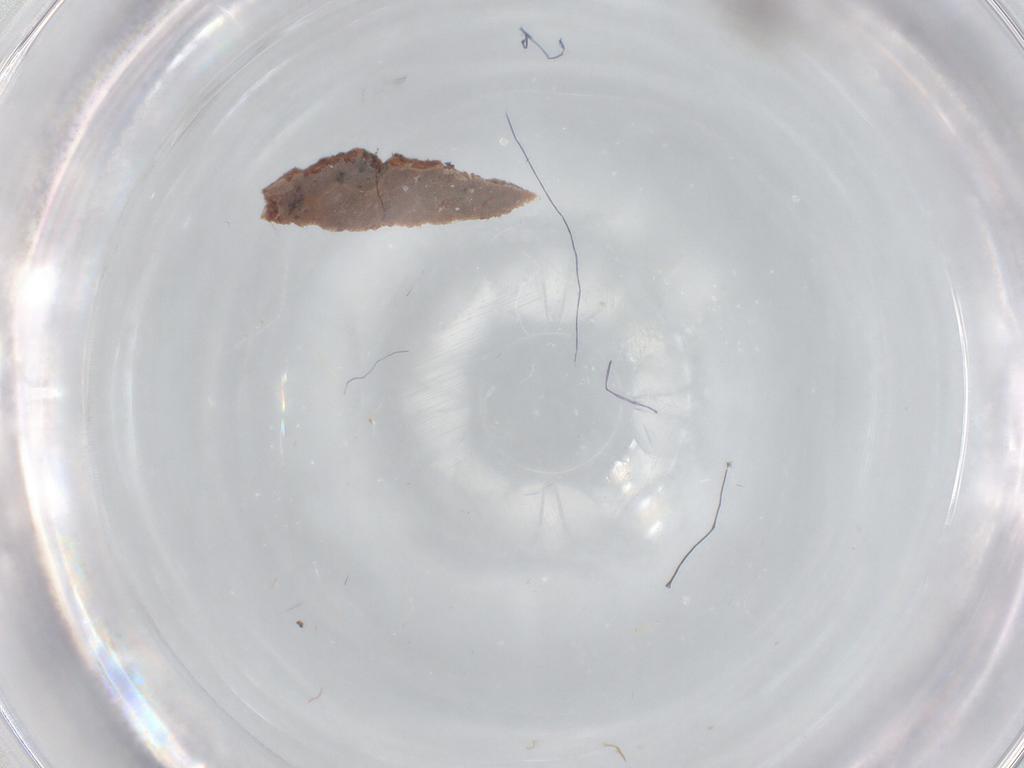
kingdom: Animalia
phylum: Arthropoda
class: Insecta
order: Diptera
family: Cecidomyiidae
